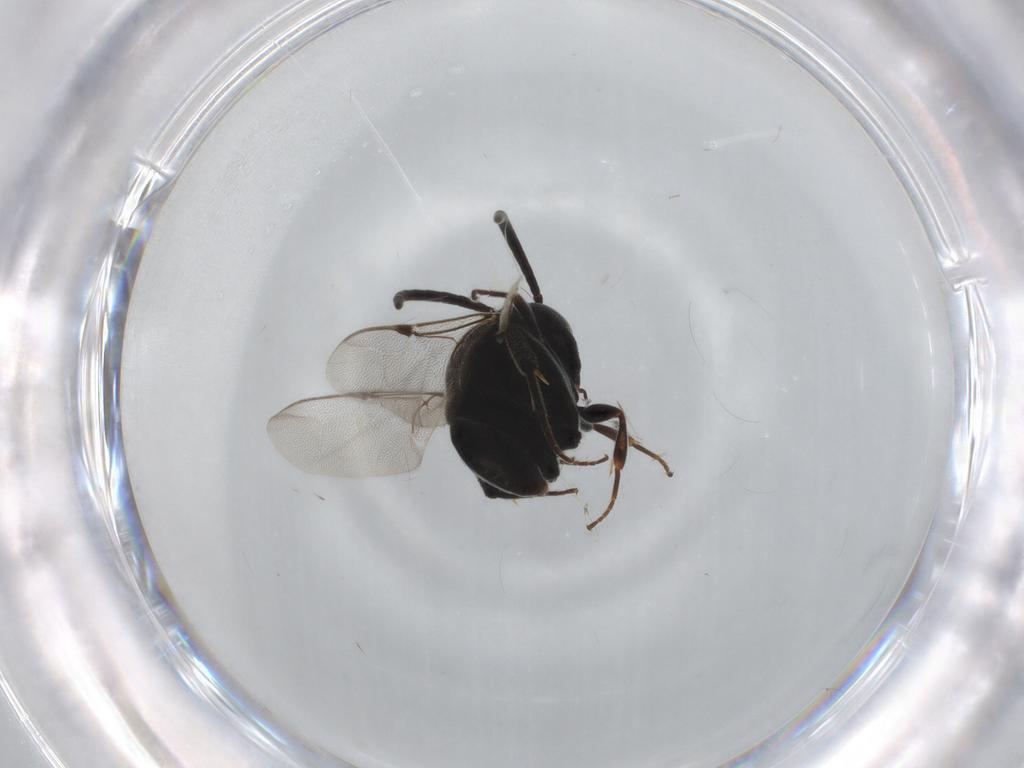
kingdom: Animalia
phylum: Arthropoda
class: Insecta
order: Hymenoptera
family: Evaniidae
